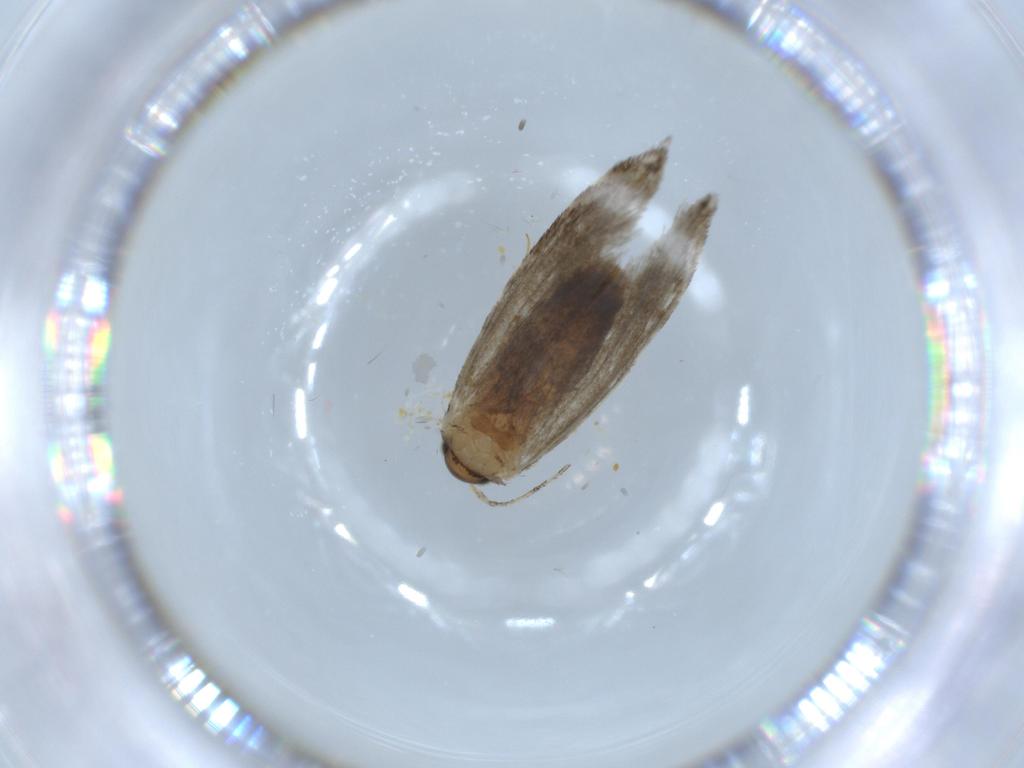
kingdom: Animalia
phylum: Arthropoda
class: Insecta
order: Lepidoptera
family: Tineidae
